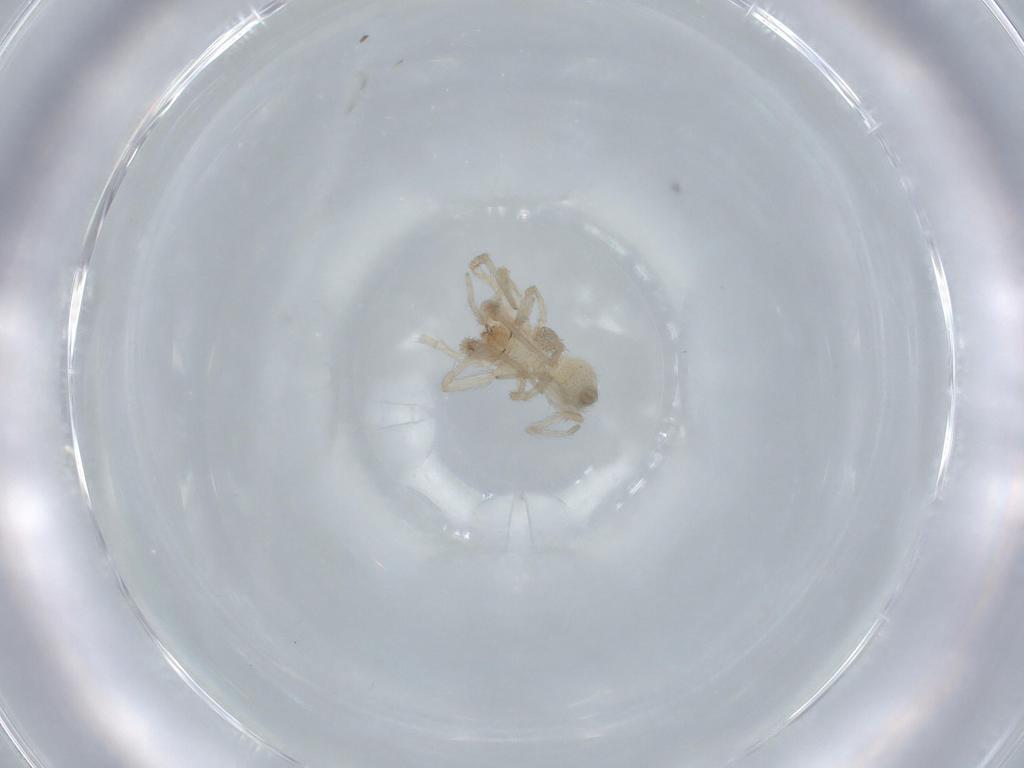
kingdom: Animalia
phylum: Arthropoda
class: Arachnida
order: Araneae
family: Oonopidae
